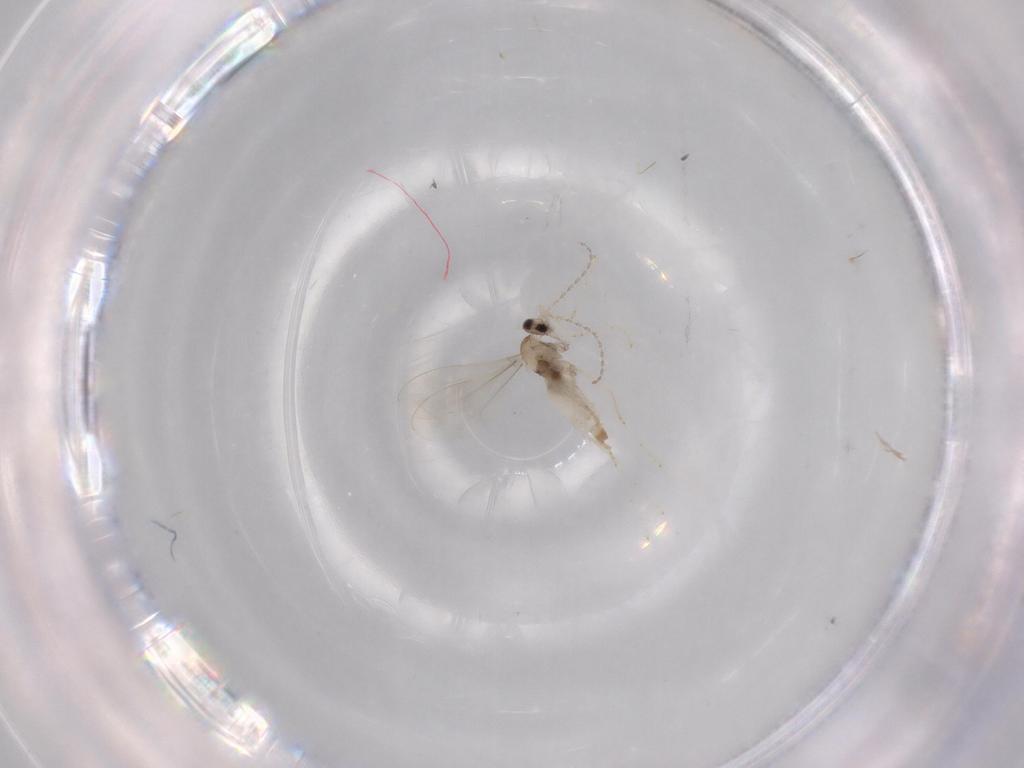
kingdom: Animalia
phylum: Arthropoda
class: Insecta
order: Diptera
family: Cecidomyiidae
